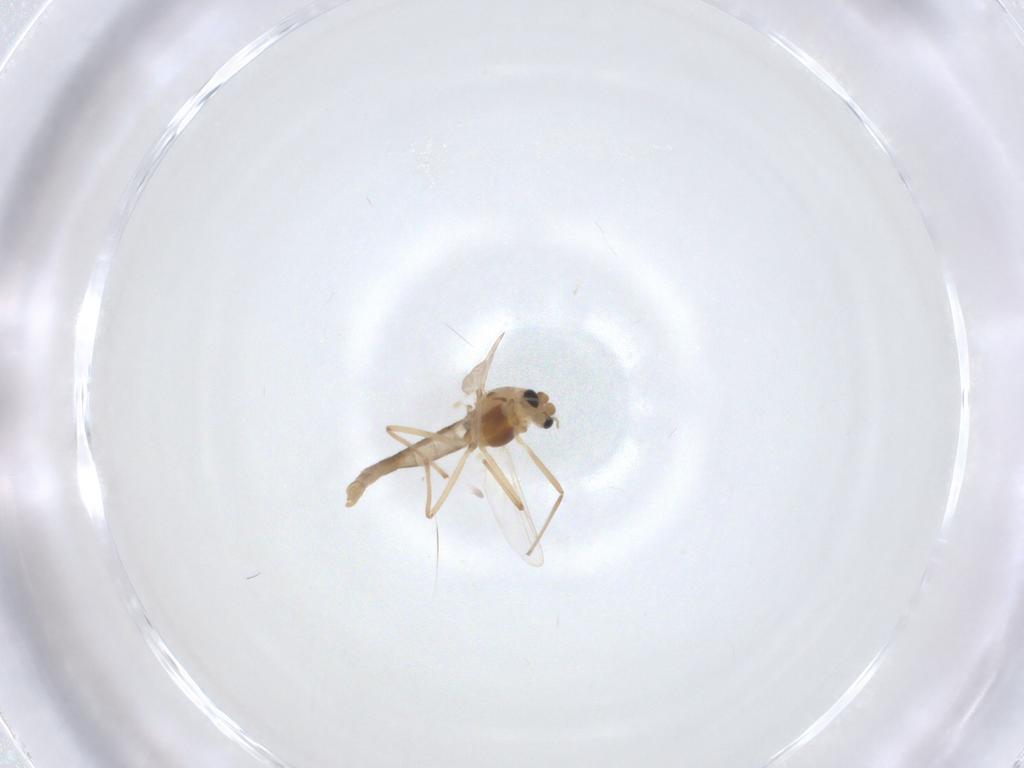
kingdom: Animalia
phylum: Arthropoda
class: Insecta
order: Diptera
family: Chironomidae
